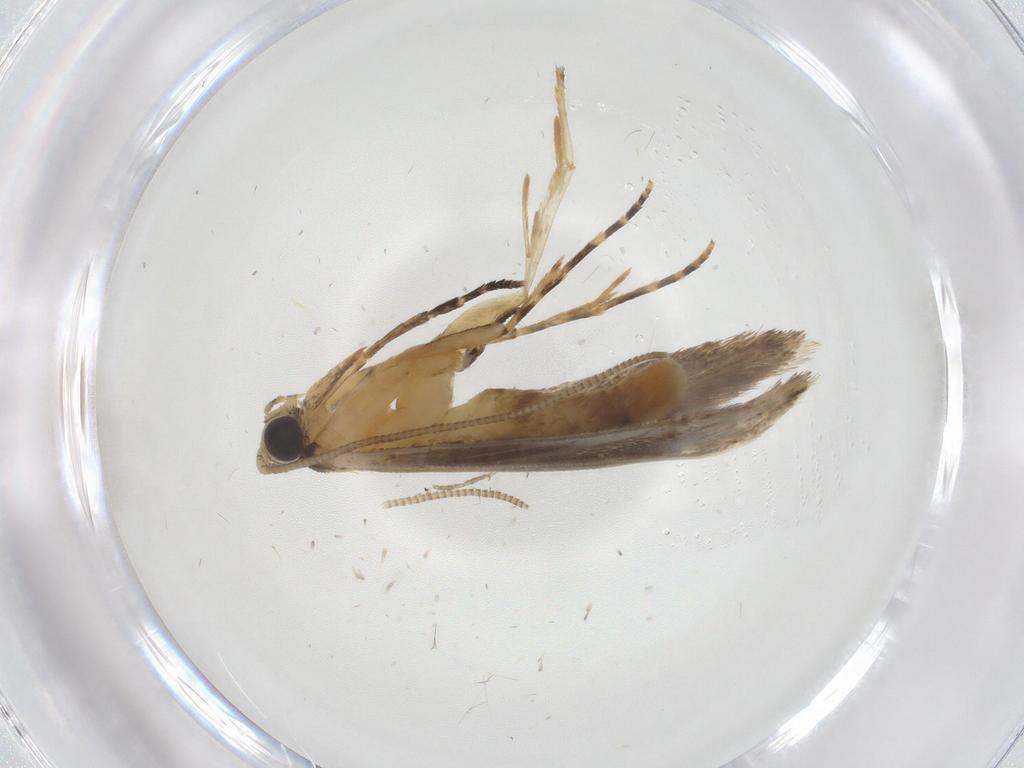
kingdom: Animalia
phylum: Arthropoda
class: Insecta
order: Lepidoptera
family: Tineidae
